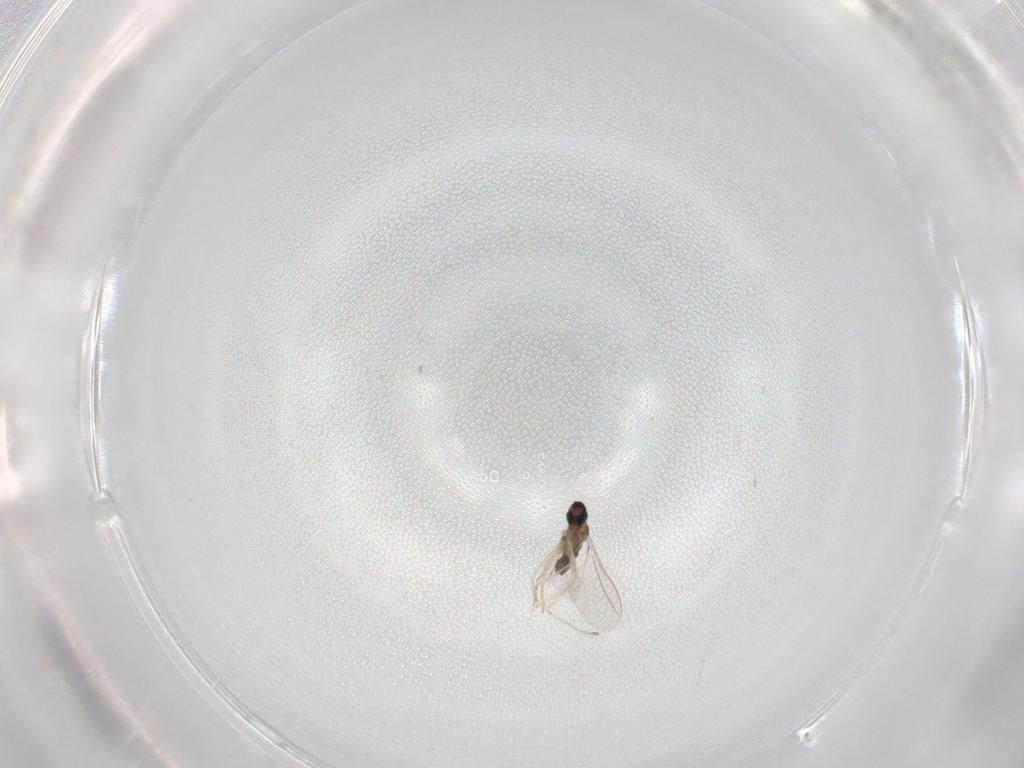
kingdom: Animalia
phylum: Arthropoda
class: Insecta
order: Diptera
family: Cecidomyiidae
